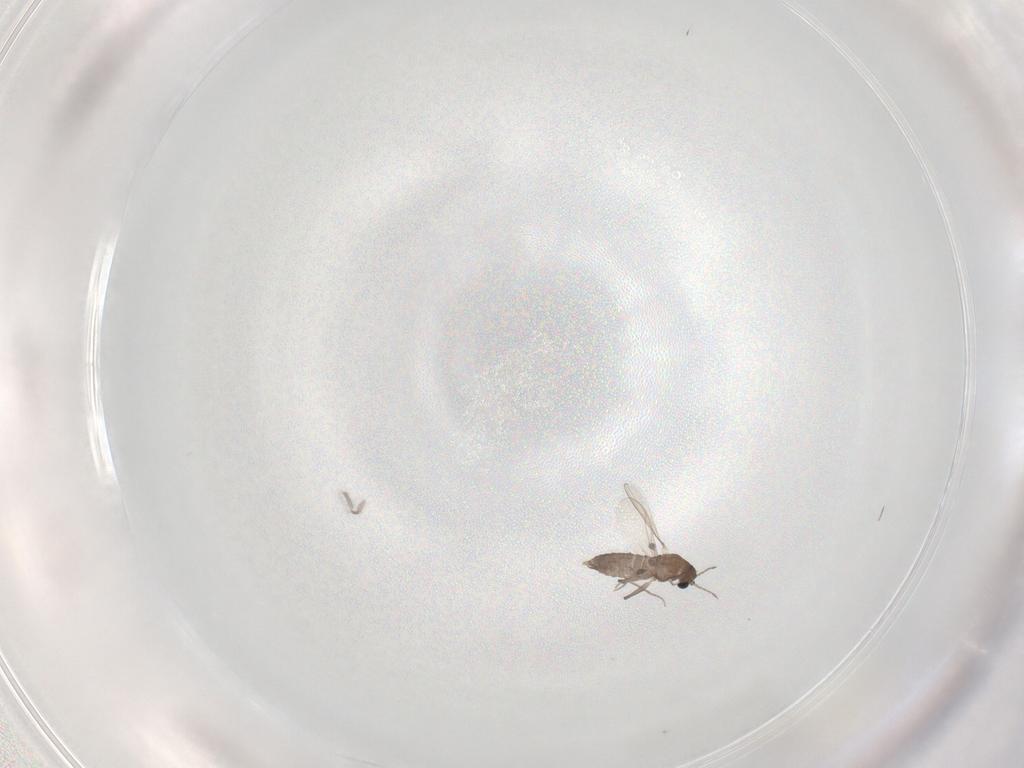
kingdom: Animalia
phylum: Arthropoda
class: Insecta
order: Diptera
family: Chironomidae
